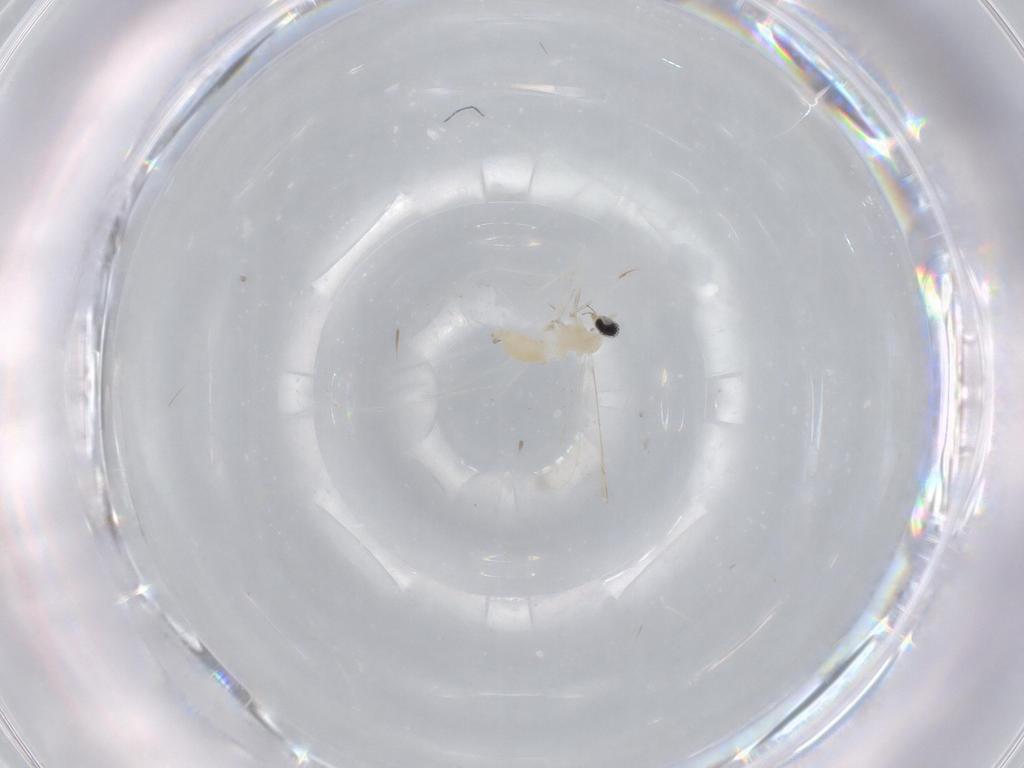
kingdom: Animalia
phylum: Arthropoda
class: Insecta
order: Diptera
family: Cecidomyiidae
